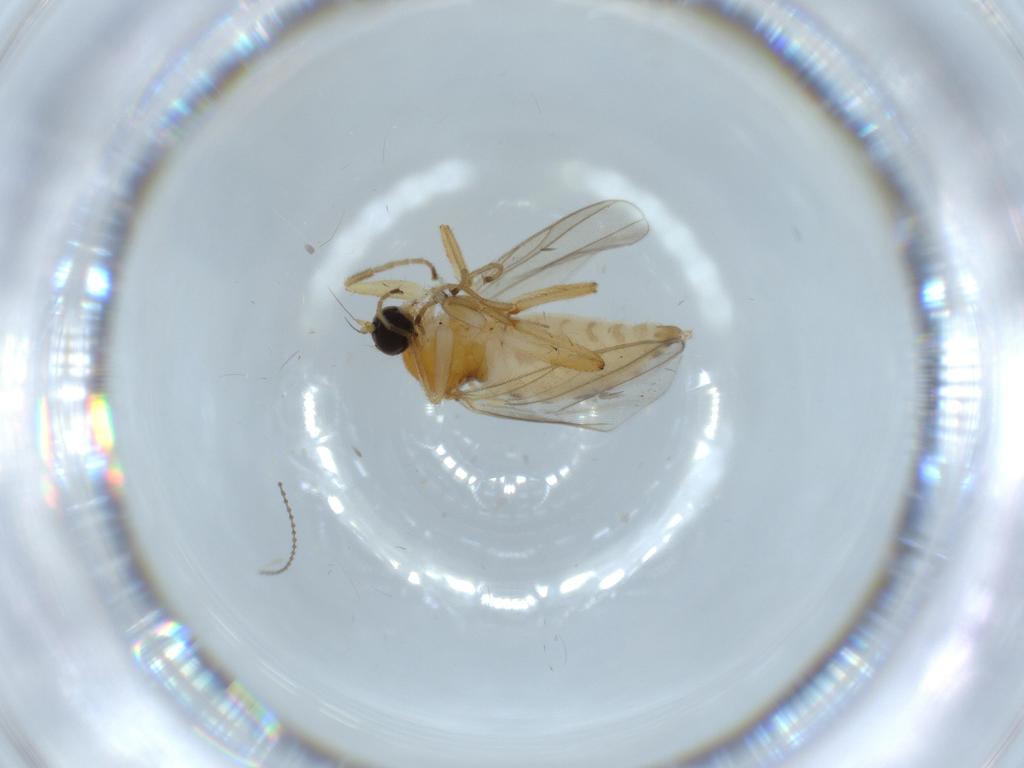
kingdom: Animalia
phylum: Arthropoda
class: Insecta
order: Diptera
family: Hybotidae
